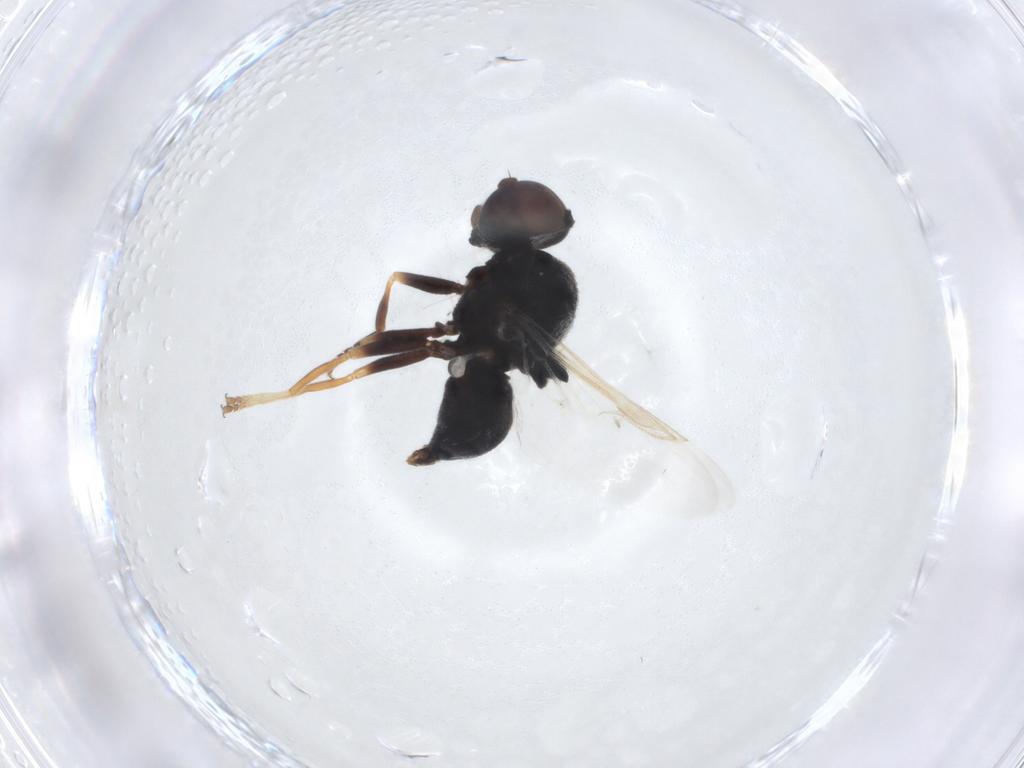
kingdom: Animalia
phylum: Arthropoda
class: Insecta
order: Diptera
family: Stratiomyidae
